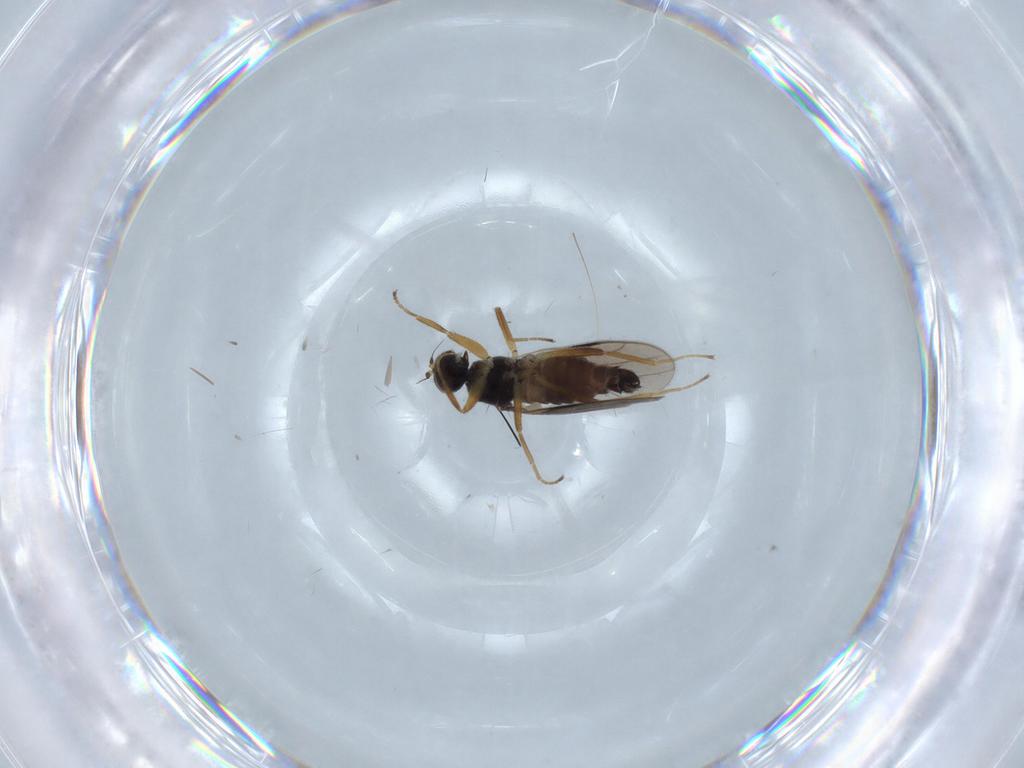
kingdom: Animalia
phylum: Arthropoda
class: Insecta
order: Diptera
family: Hybotidae
